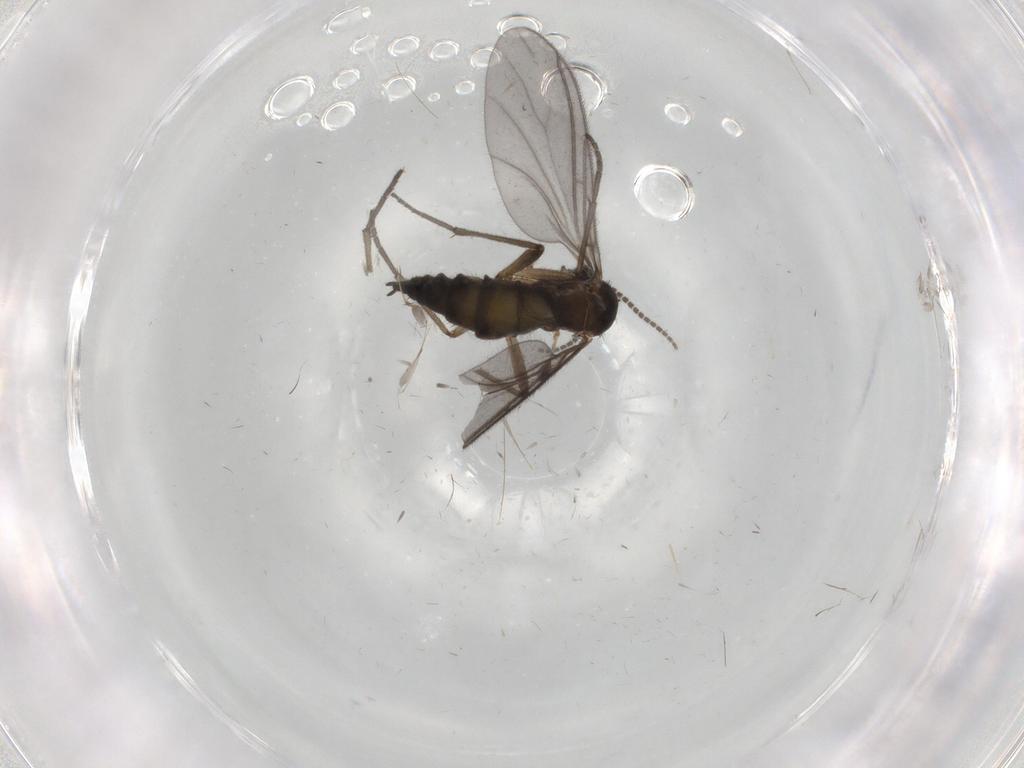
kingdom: Animalia
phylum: Arthropoda
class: Insecta
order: Diptera
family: Sciaridae
